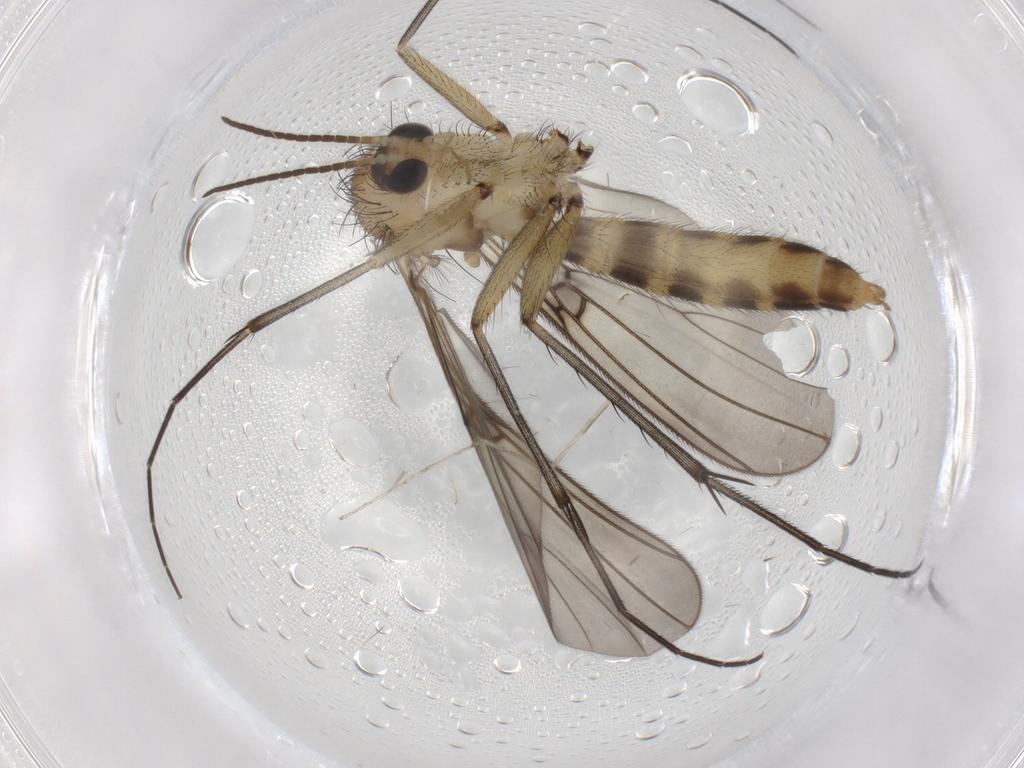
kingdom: Animalia
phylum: Arthropoda
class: Insecta
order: Diptera
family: Phoridae
